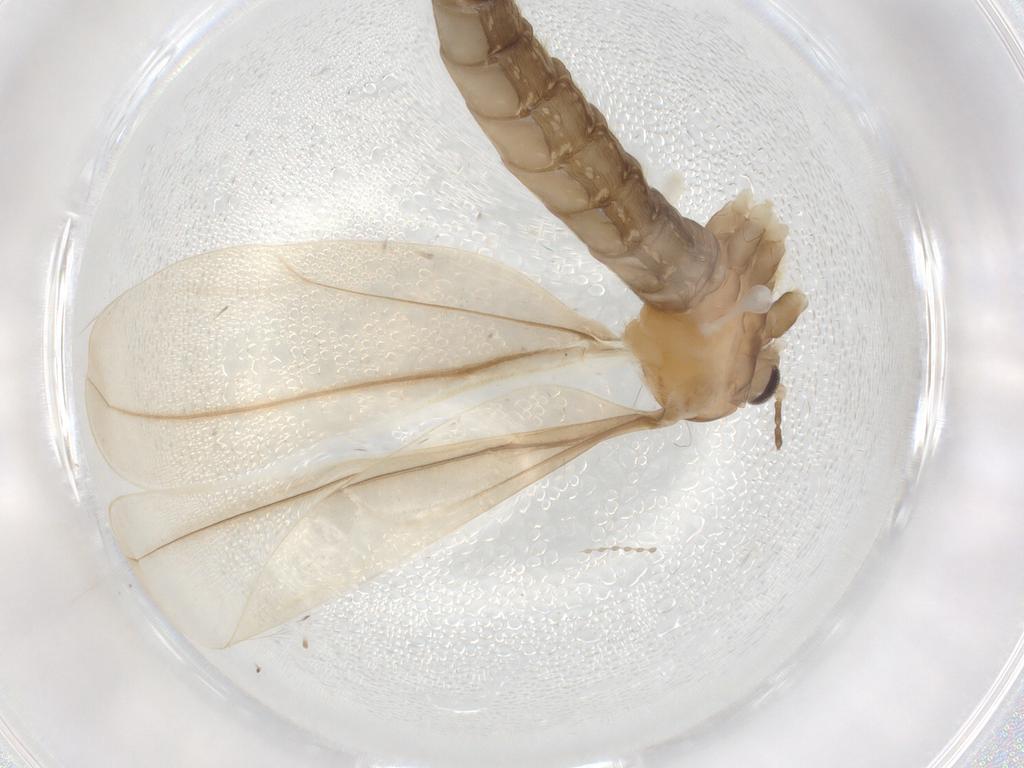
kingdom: Animalia
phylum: Arthropoda
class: Insecta
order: Diptera
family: Cecidomyiidae
